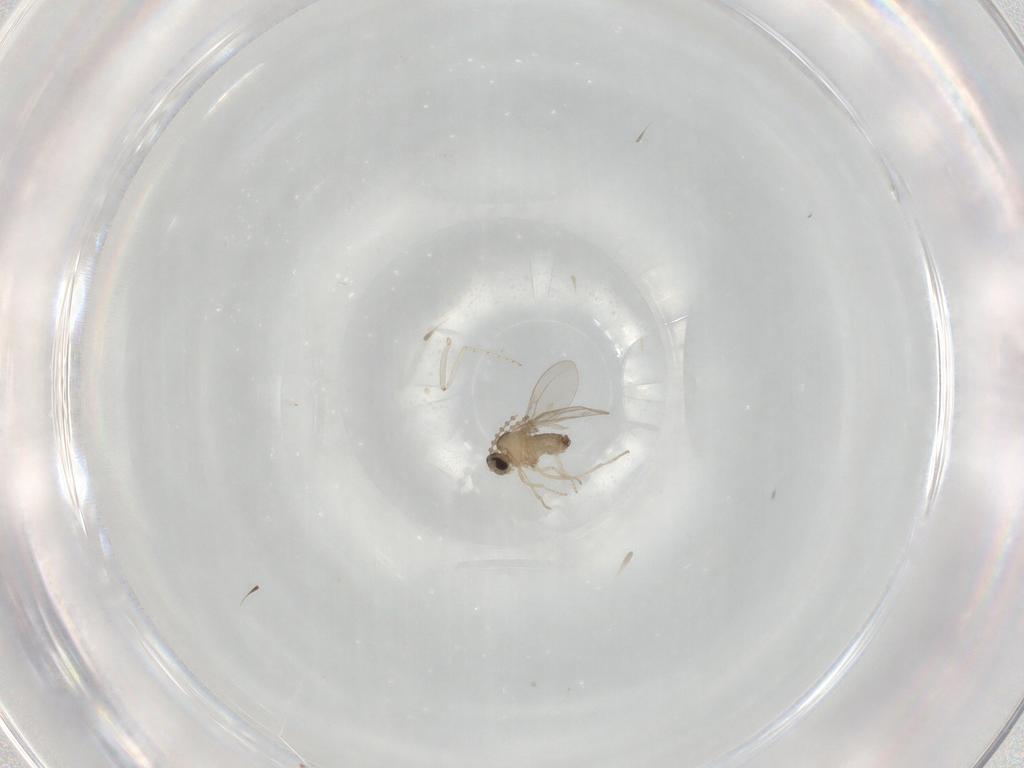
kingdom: Animalia
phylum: Arthropoda
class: Insecta
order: Diptera
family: Cecidomyiidae
